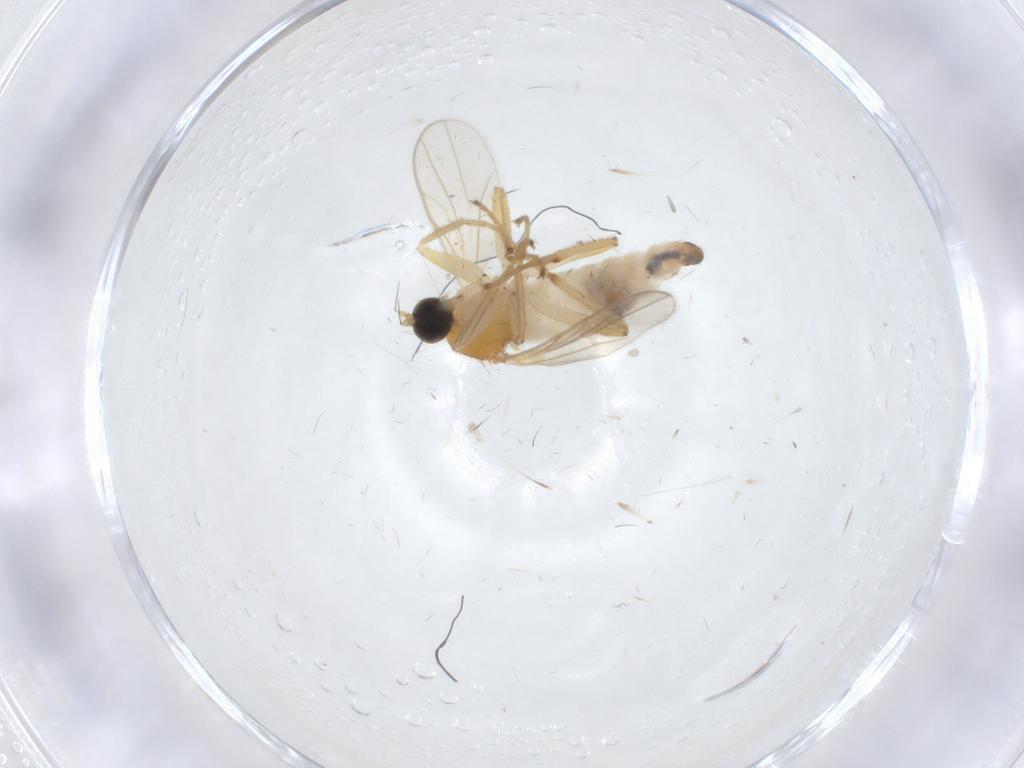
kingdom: Animalia
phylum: Arthropoda
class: Insecta
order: Diptera
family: Hybotidae
